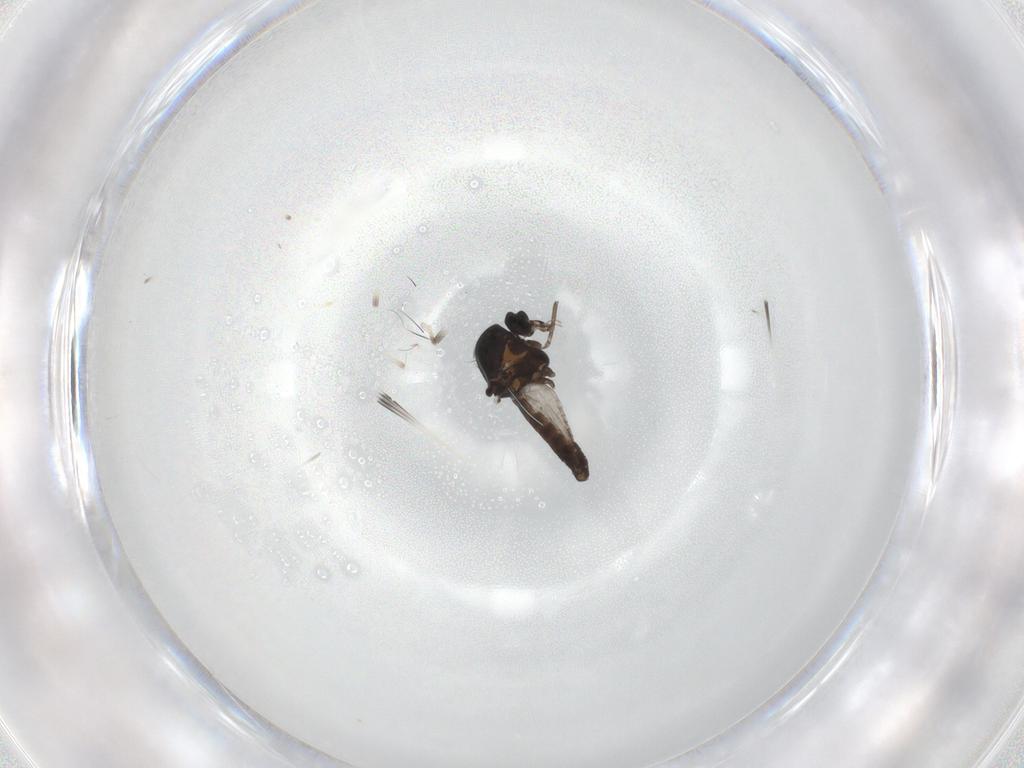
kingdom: Animalia
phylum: Arthropoda
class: Insecta
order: Diptera
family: Ceratopogonidae
